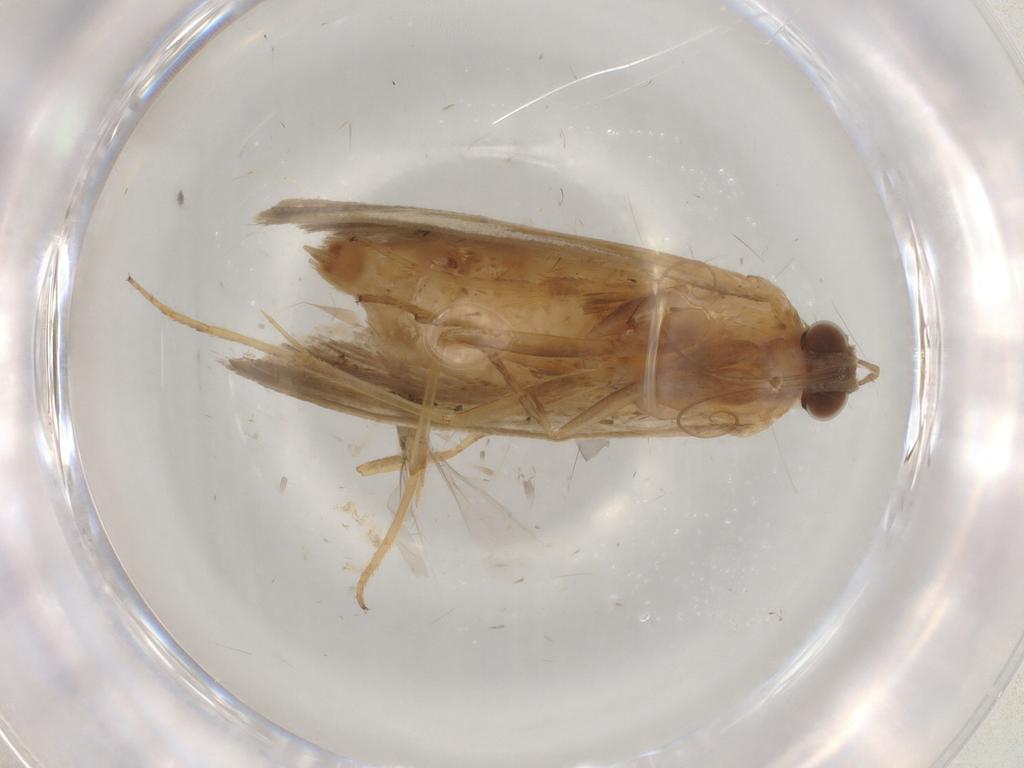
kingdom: Animalia
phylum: Arthropoda
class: Insecta
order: Lepidoptera
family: Noctuidae
